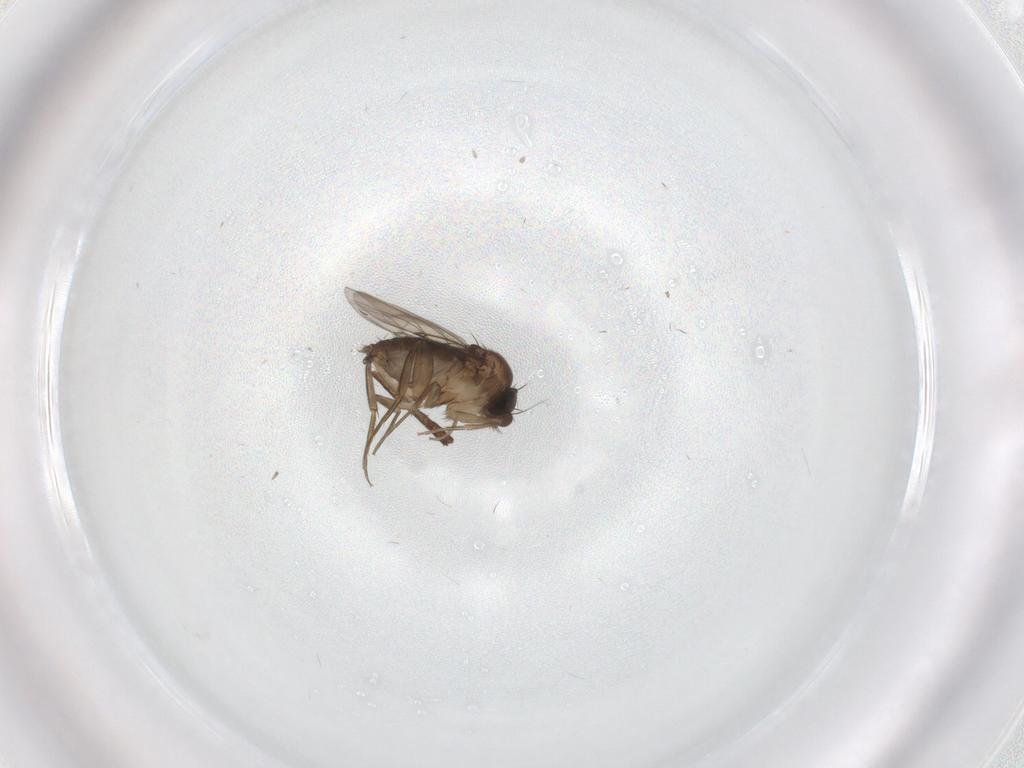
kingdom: Animalia
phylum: Arthropoda
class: Insecta
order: Diptera
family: Phoridae
